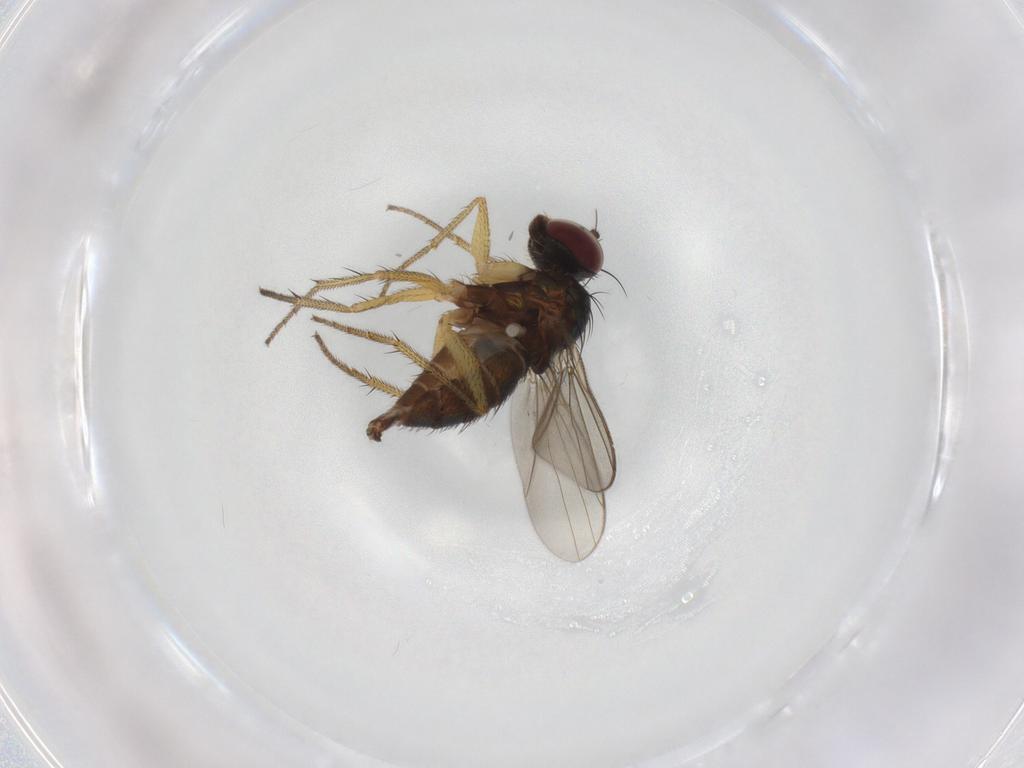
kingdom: Animalia
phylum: Arthropoda
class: Insecta
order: Diptera
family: Dolichopodidae
